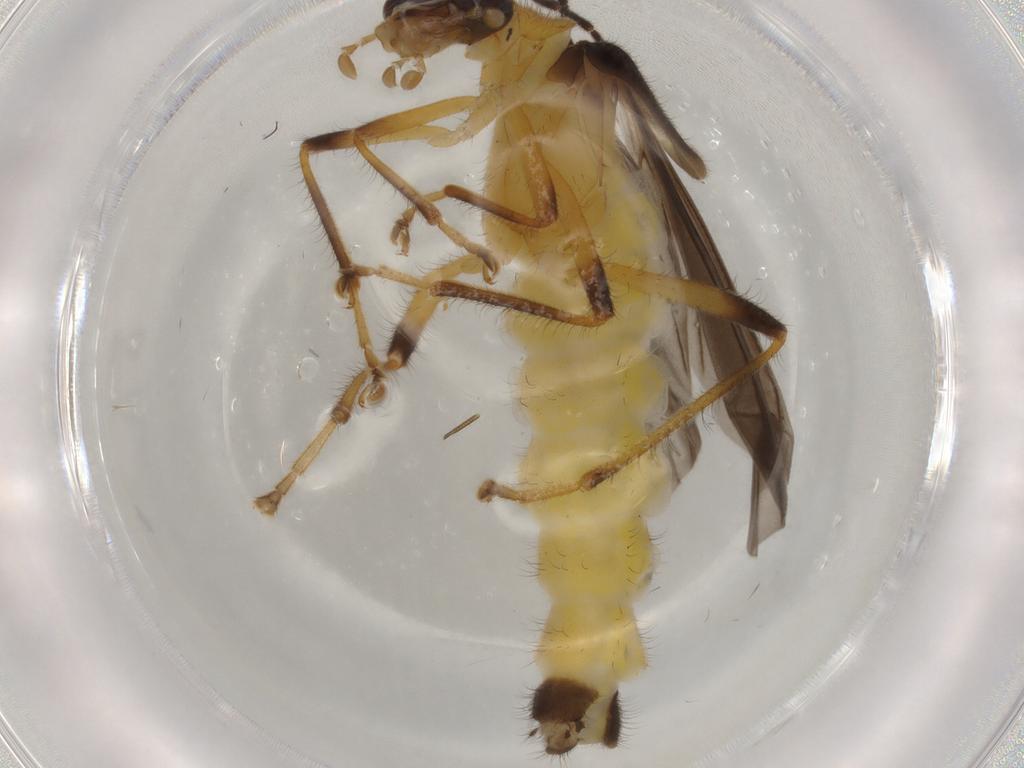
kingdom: Animalia
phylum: Arthropoda
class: Insecta
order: Coleoptera
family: Cantharidae
